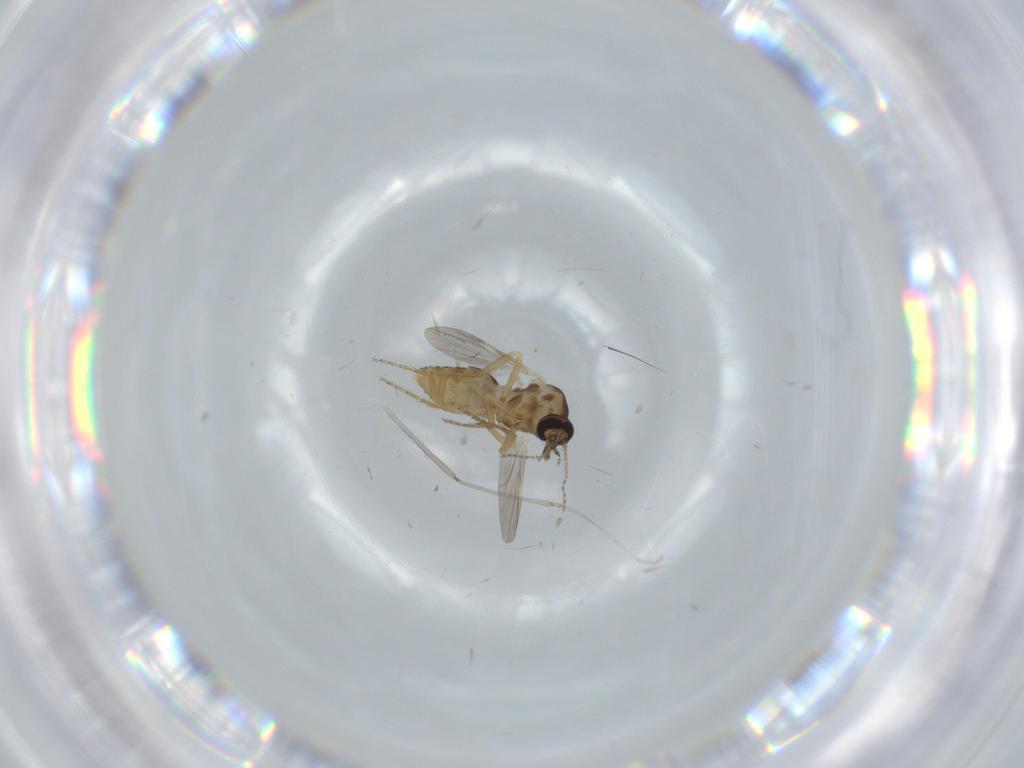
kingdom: Animalia
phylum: Arthropoda
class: Insecta
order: Diptera
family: Ceratopogonidae
